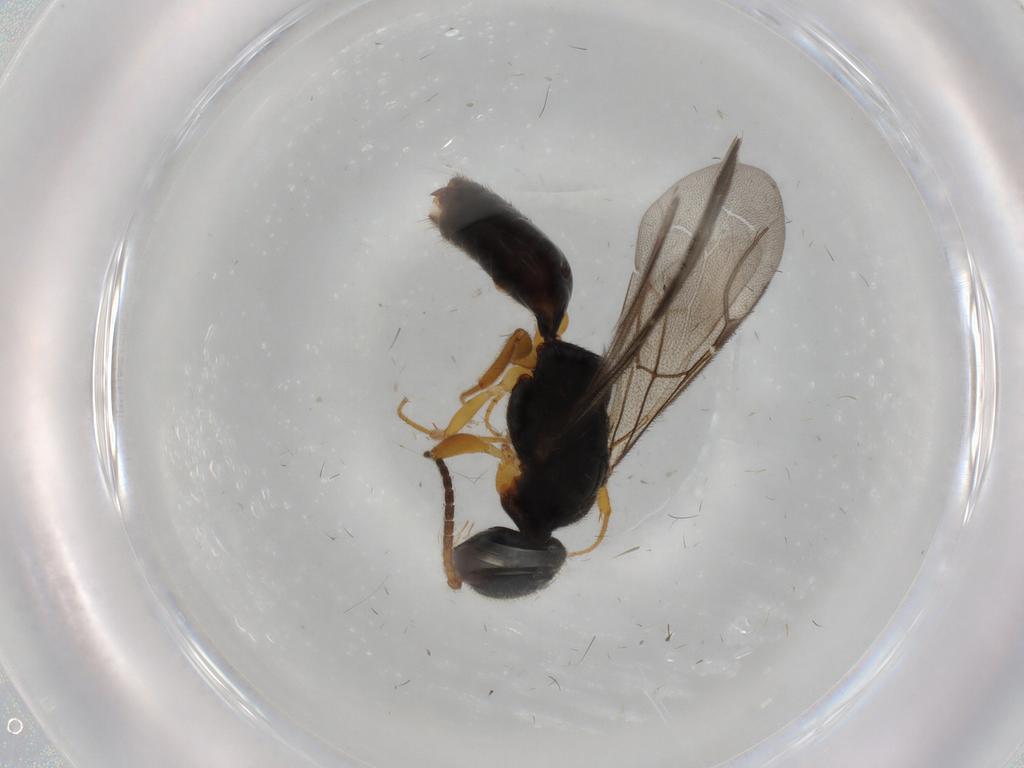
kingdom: Animalia
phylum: Arthropoda
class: Insecta
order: Hymenoptera
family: Bethylidae
